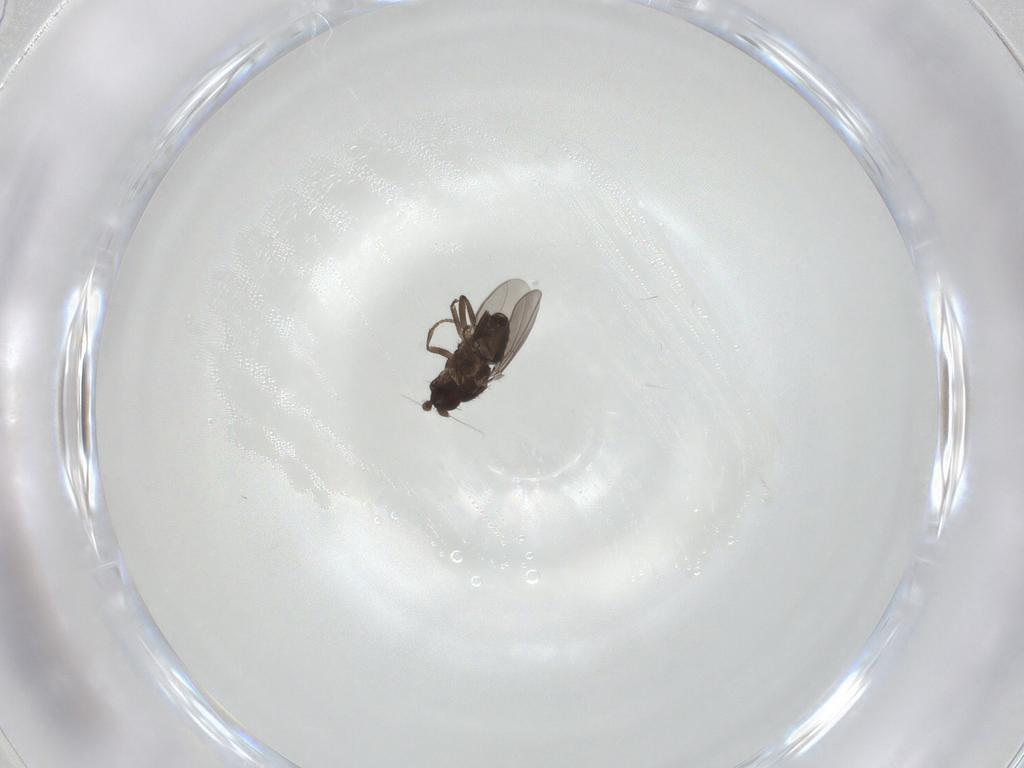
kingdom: Animalia
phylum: Arthropoda
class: Insecta
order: Diptera
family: Sphaeroceridae
